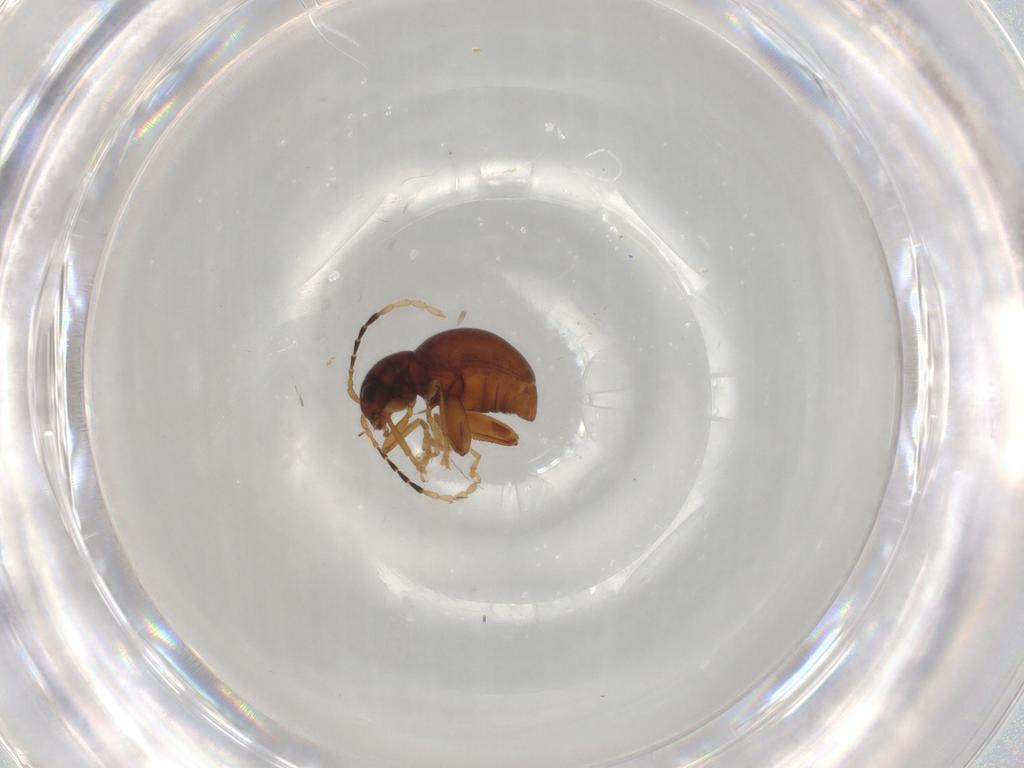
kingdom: Animalia
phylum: Arthropoda
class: Insecta
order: Coleoptera
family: Chrysomelidae
